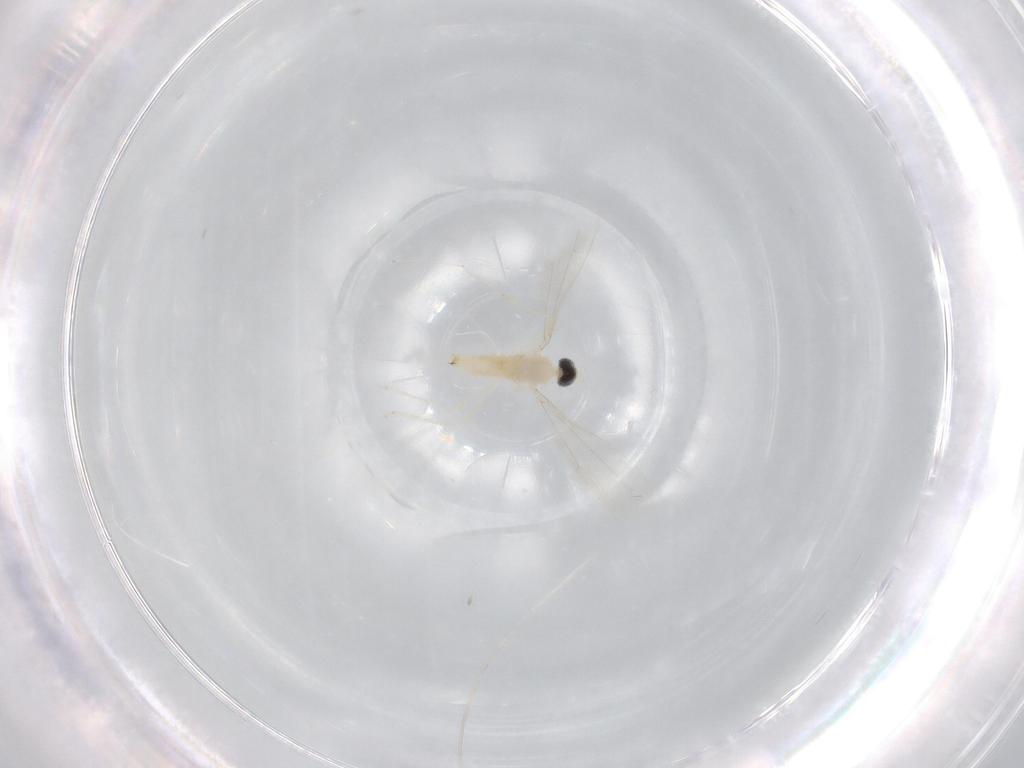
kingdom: Animalia
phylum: Arthropoda
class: Insecta
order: Diptera
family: Cecidomyiidae
